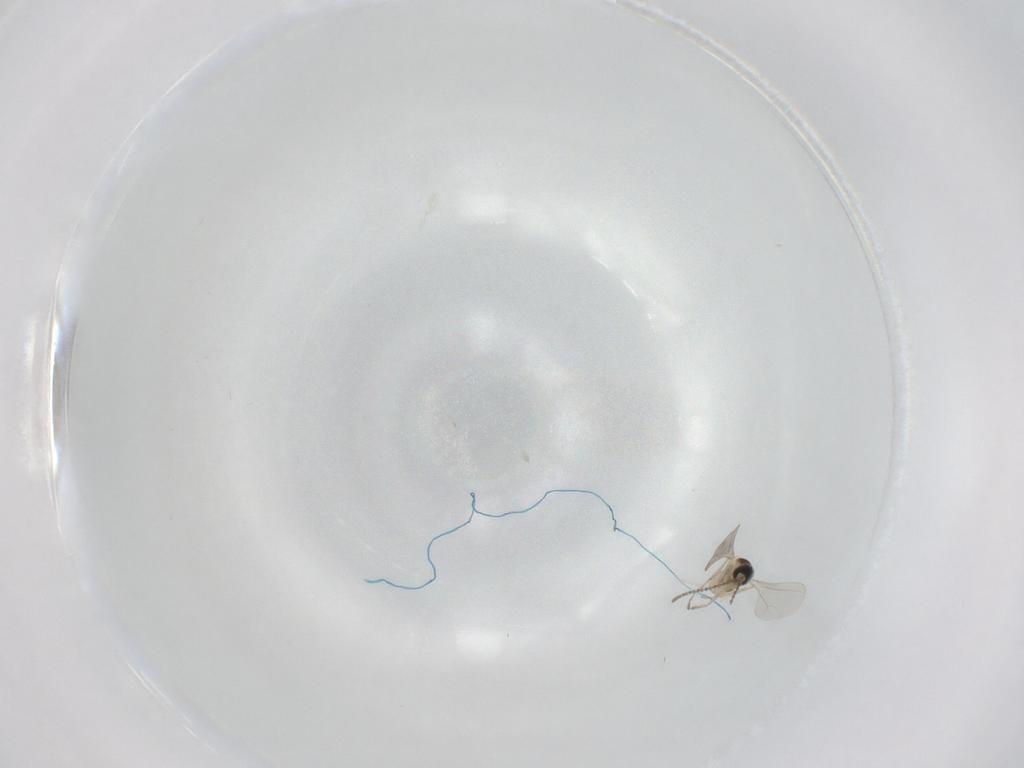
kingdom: Animalia
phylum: Arthropoda
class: Insecta
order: Diptera
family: Cecidomyiidae
